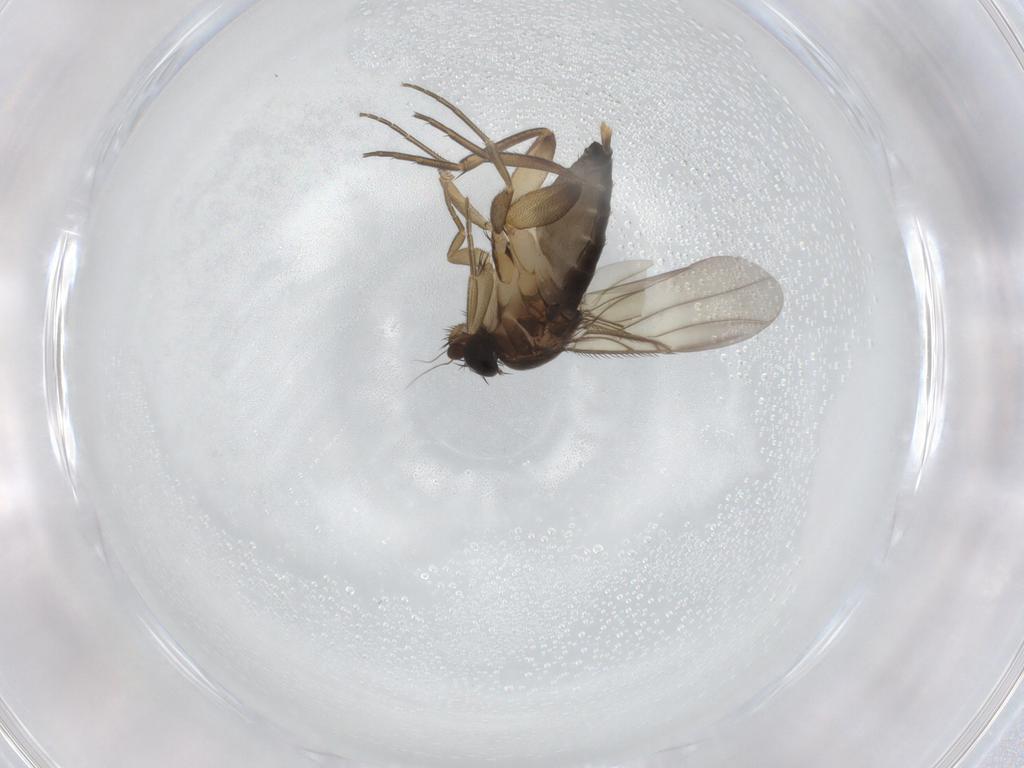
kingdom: Animalia
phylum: Arthropoda
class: Insecta
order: Diptera
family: Phoridae
